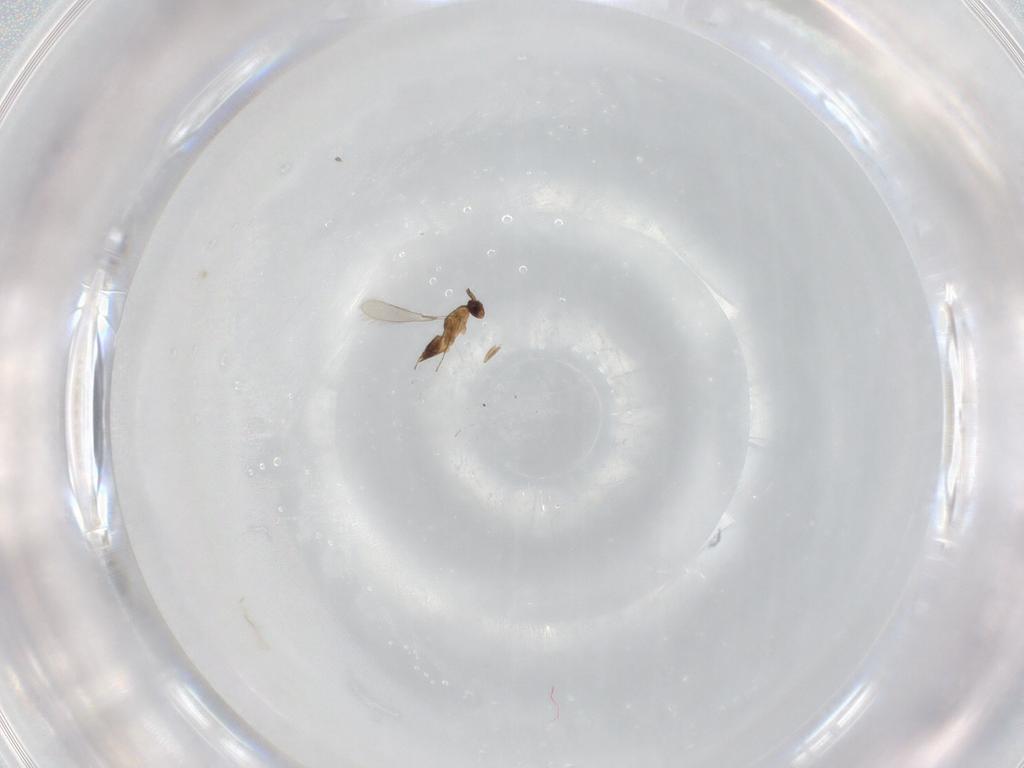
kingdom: Animalia
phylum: Arthropoda
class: Insecta
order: Hymenoptera
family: Mymaridae
